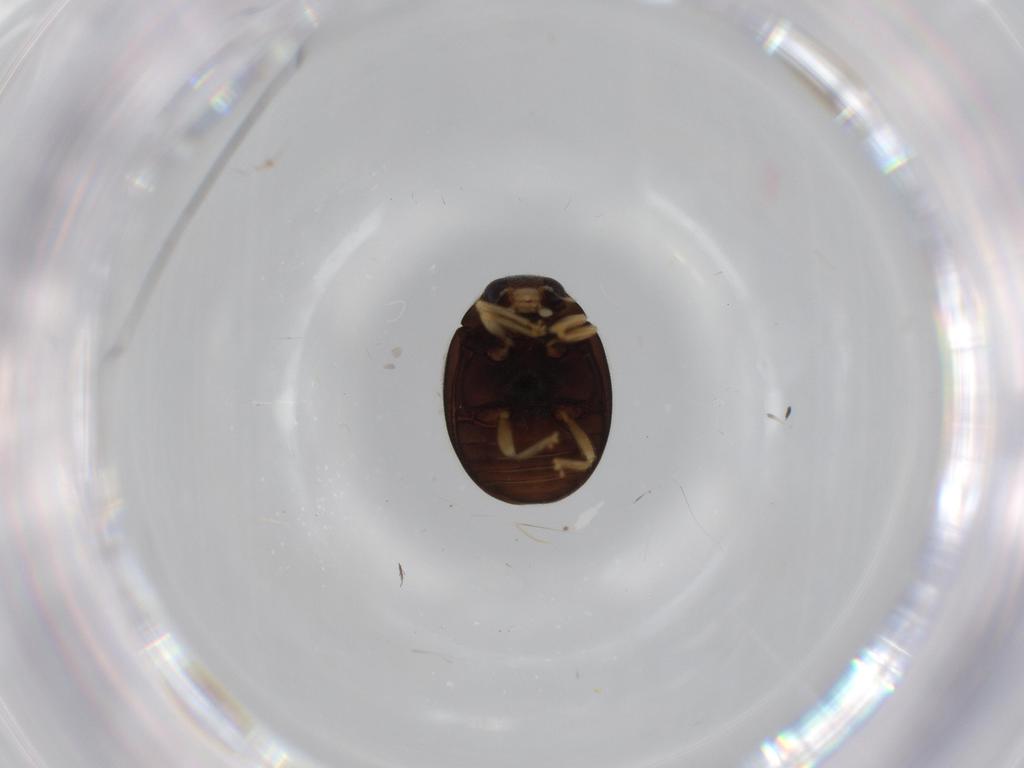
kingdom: Animalia
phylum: Arthropoda
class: Insecta
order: Coleoptera
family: Coccinellidae
